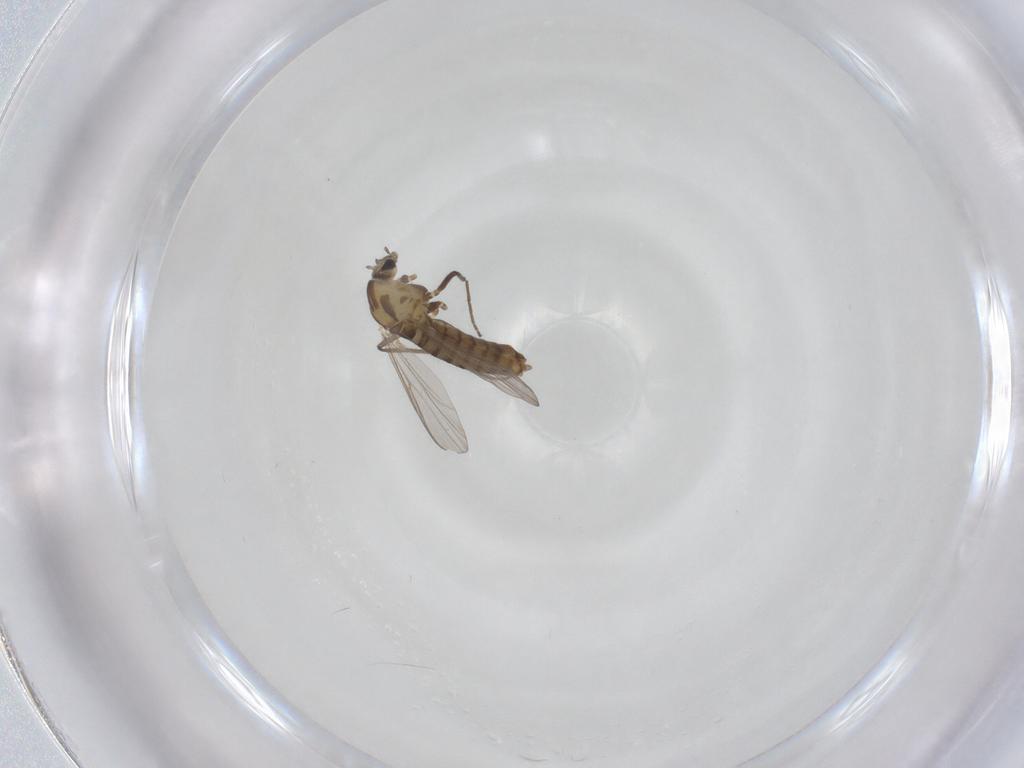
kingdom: Animalia
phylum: Arthropoda
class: Insecta
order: Diptera
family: Chironomidae
